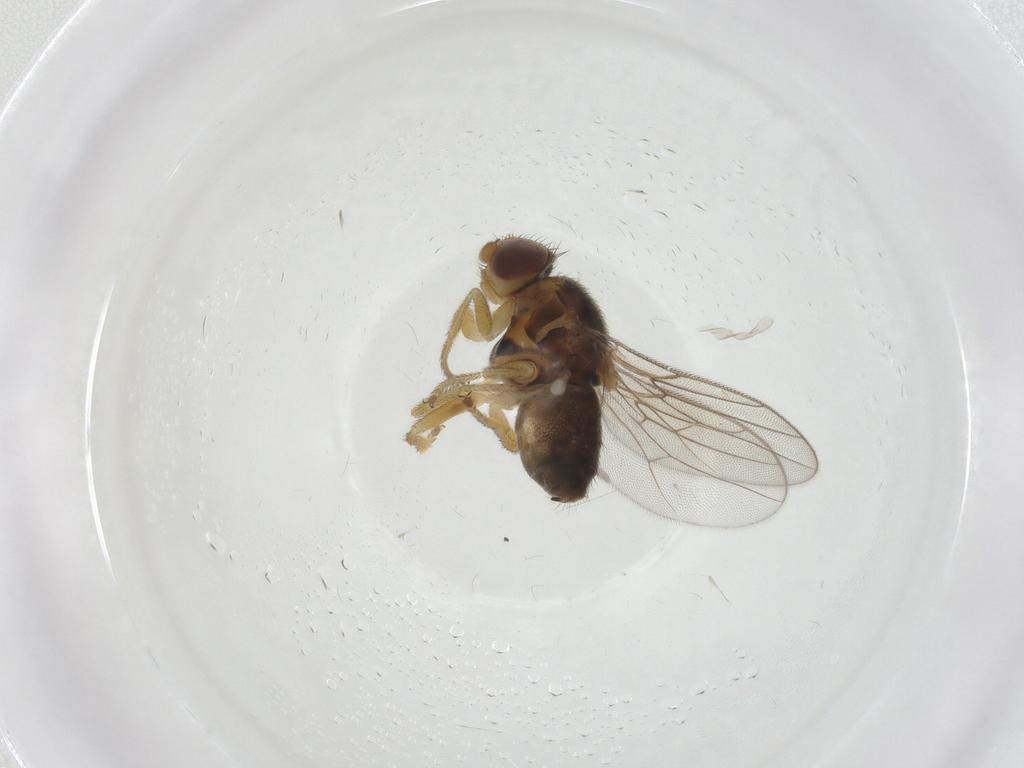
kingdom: Animalia
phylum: Arthropoda
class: Insecta
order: Diptera
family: Chloropidae
